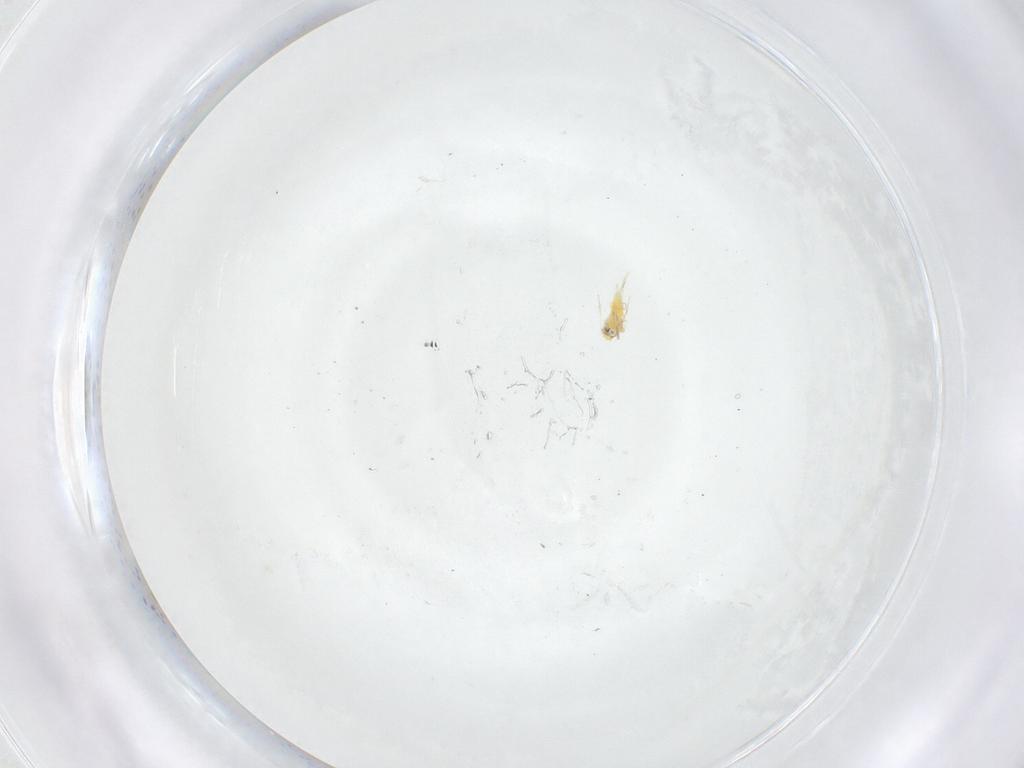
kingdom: Animalia
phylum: Arthropoda
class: Insecta
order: Hemiptera
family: Aleyrodidae
